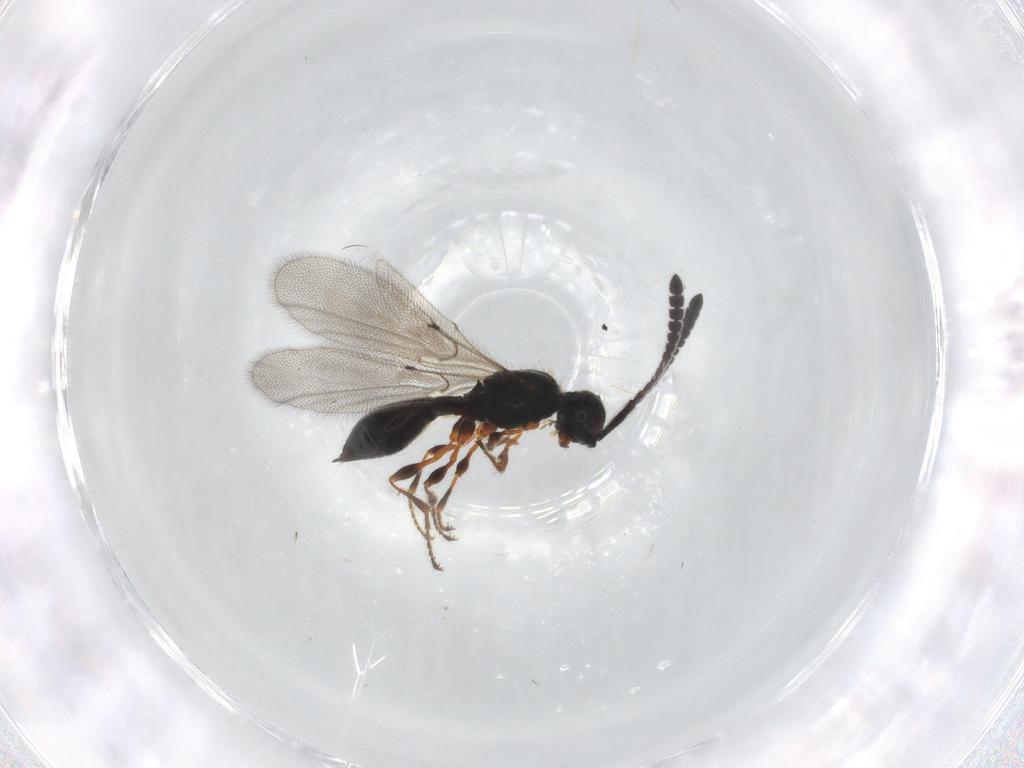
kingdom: Animalia
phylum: Arthropoda
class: Insecta
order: Hymenoptera
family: Diapriidae
